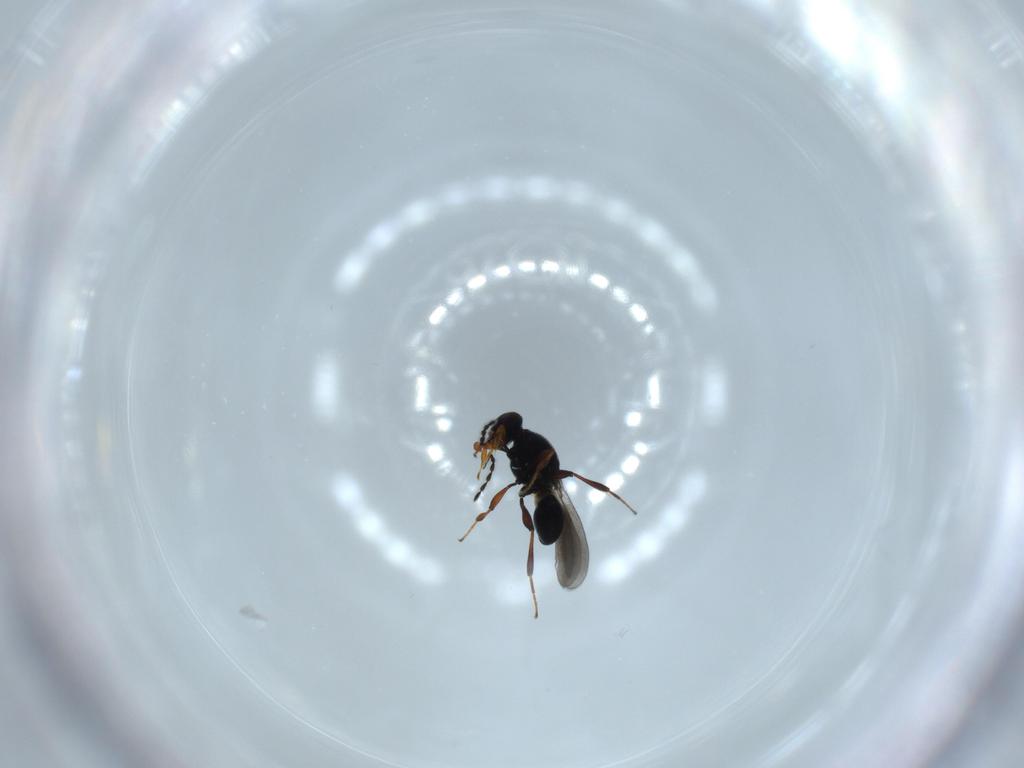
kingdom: Animalia
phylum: Arthropoda
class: Insecta
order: Hymenoptera
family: Platygastridae
